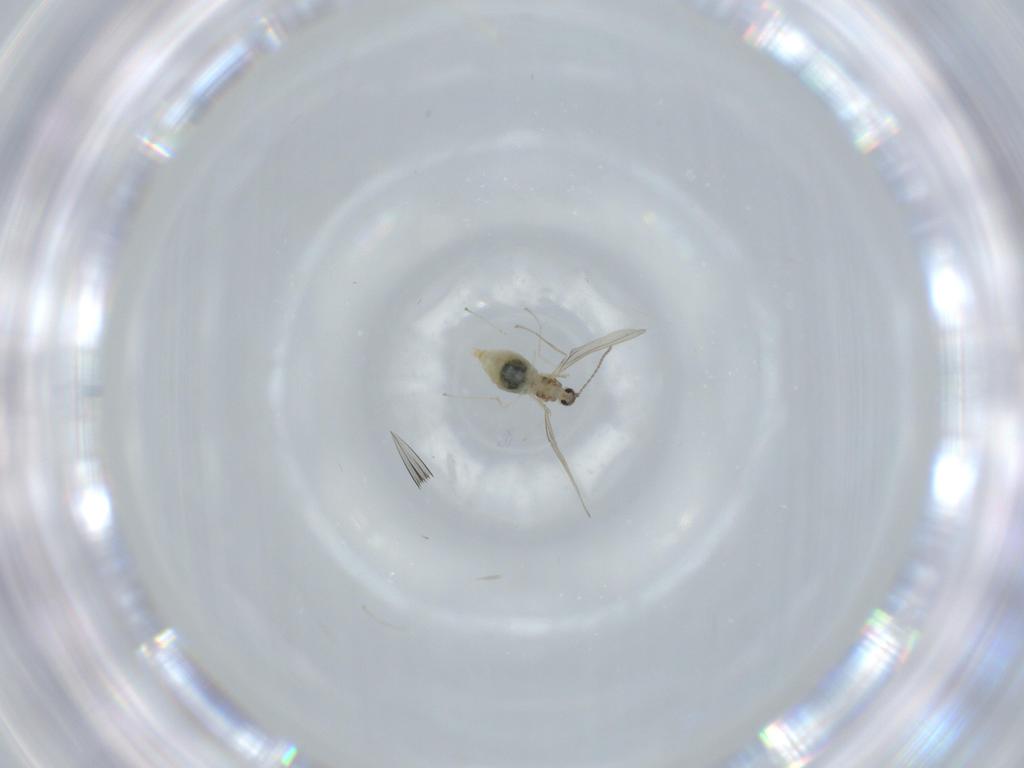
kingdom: Animalia
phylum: Arthropoda
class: Insecta
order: Diptera
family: Cecidomyiidae
